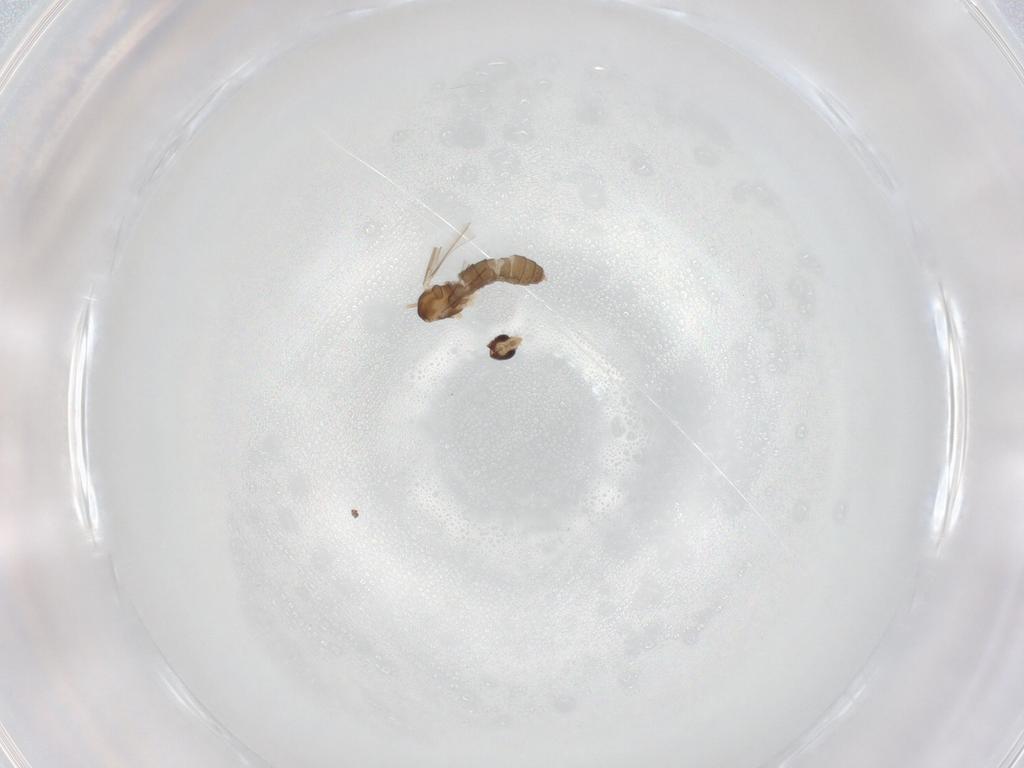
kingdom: Animalia
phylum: Arthropoda
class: Insecta
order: Diptera
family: Cecidomyiidae
